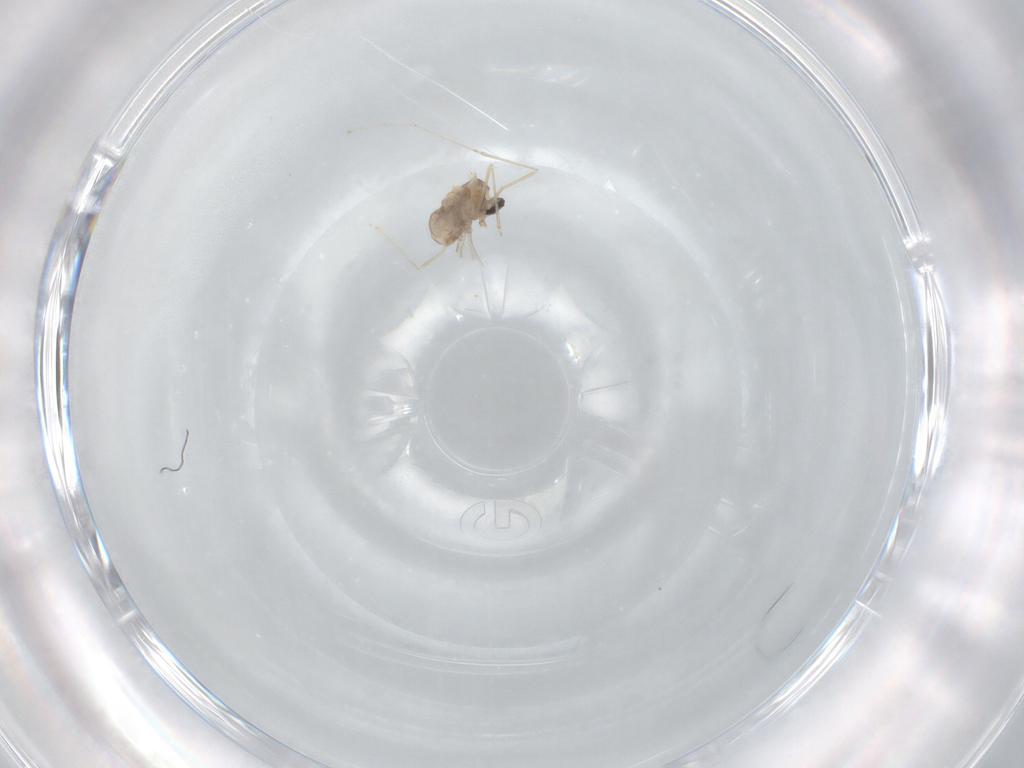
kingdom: Animalia
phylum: Arthropoda
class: Insecta
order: Diptera
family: Cecidomyiidae
